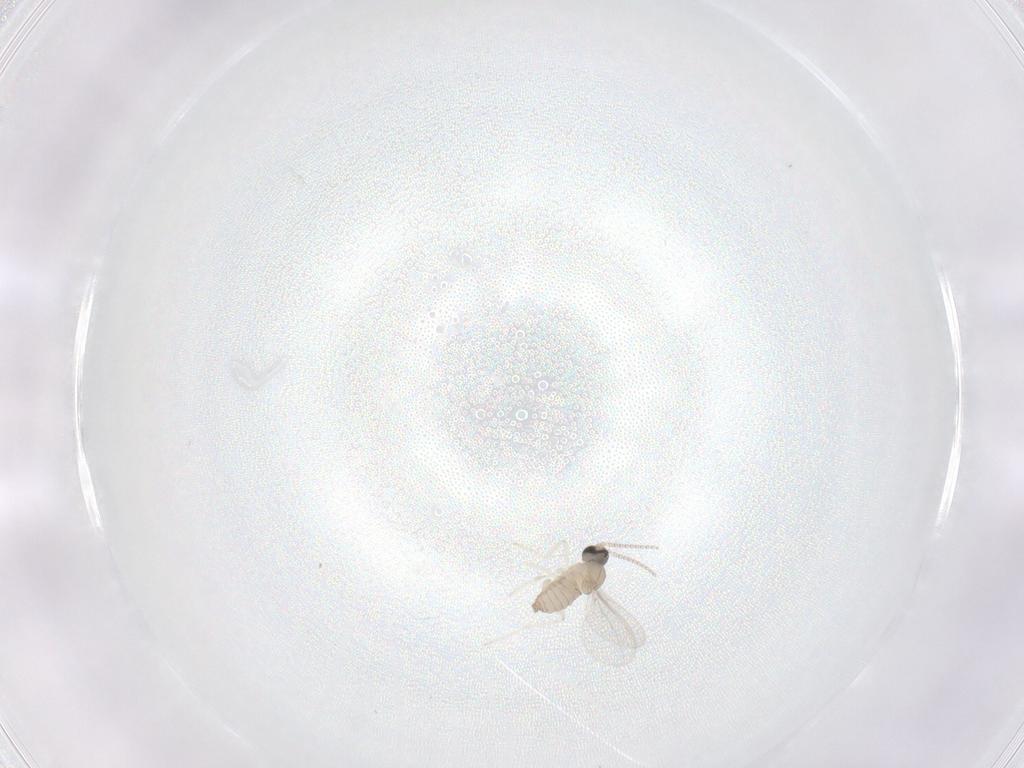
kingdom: Animalia
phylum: Arthropoda
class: Insecta
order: Diptera
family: Cecidomyiidae
